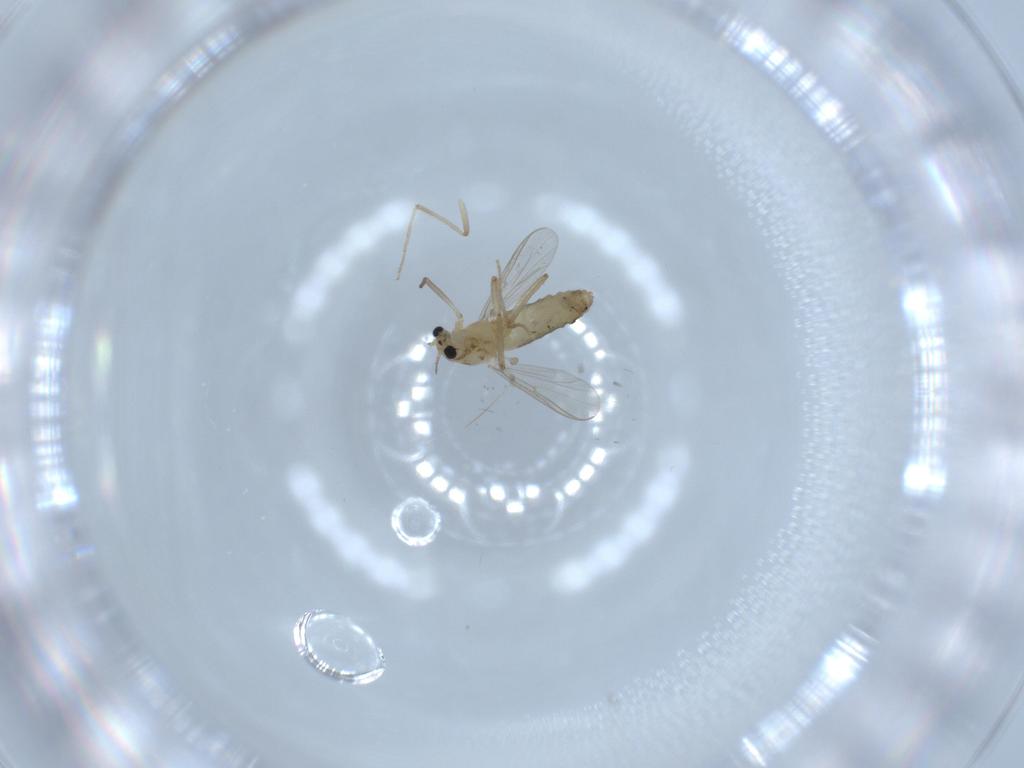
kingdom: Animalia
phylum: Arthropoda
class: Insecta
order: Diptera
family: Chironomidae
